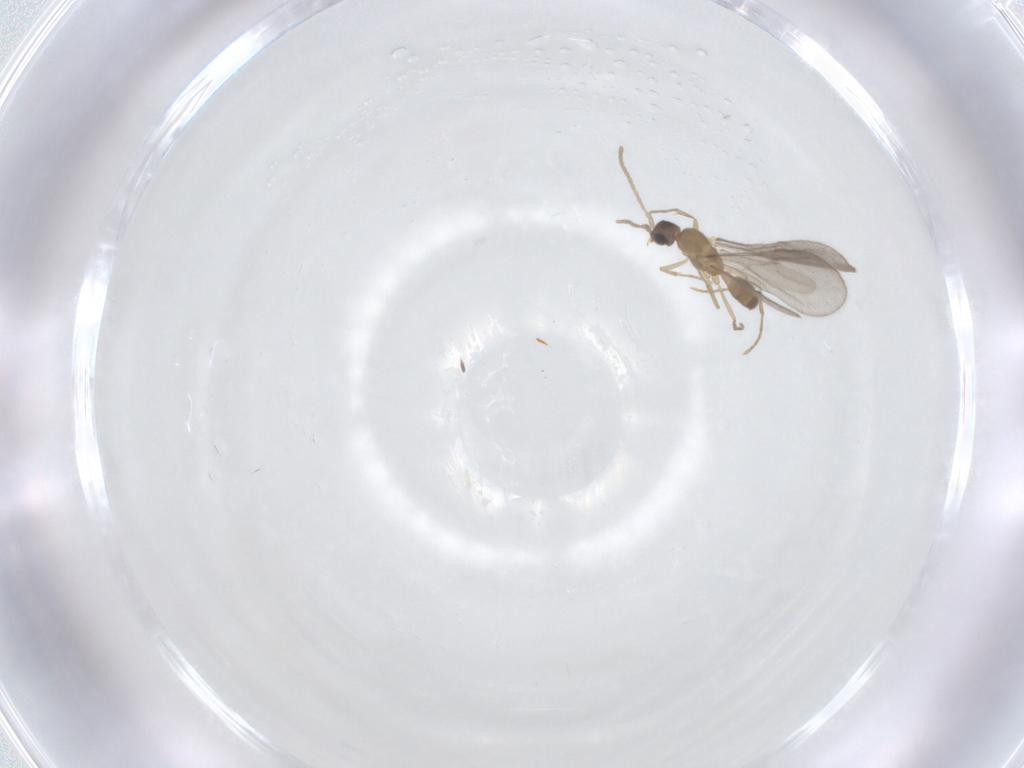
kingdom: Animalia
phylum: Arthropoda
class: Insecta
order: Hymenoptera
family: Formicidae
